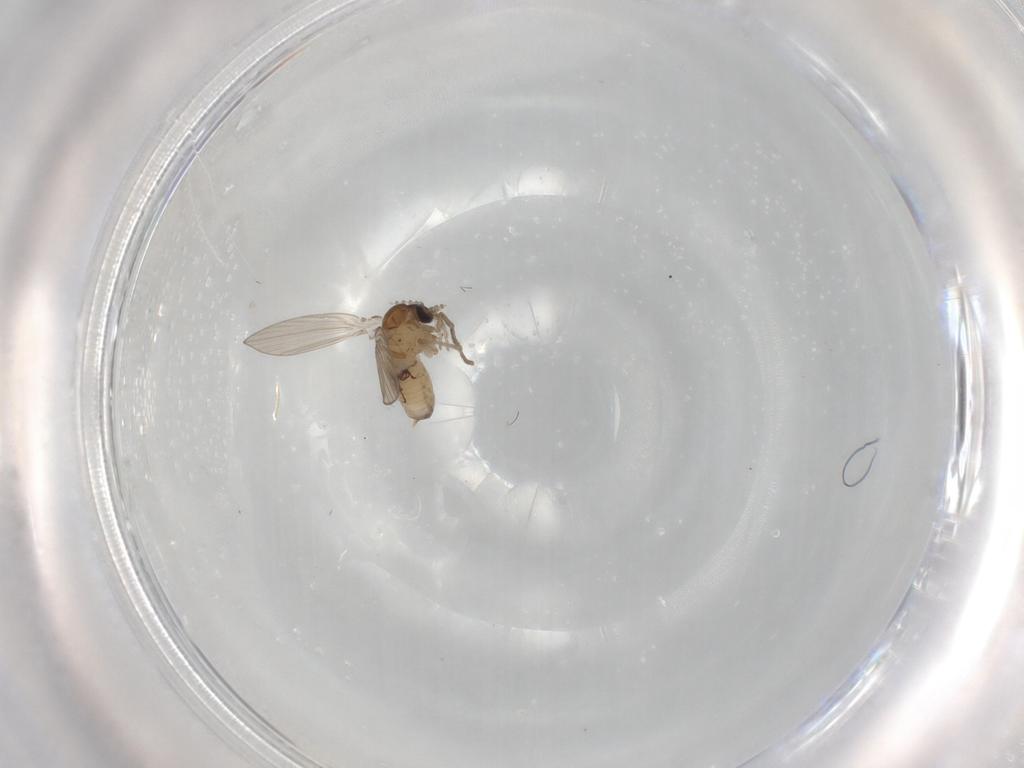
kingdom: Animalia
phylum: Arthropoda
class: Insecta
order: Diptera
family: Psychodidae
